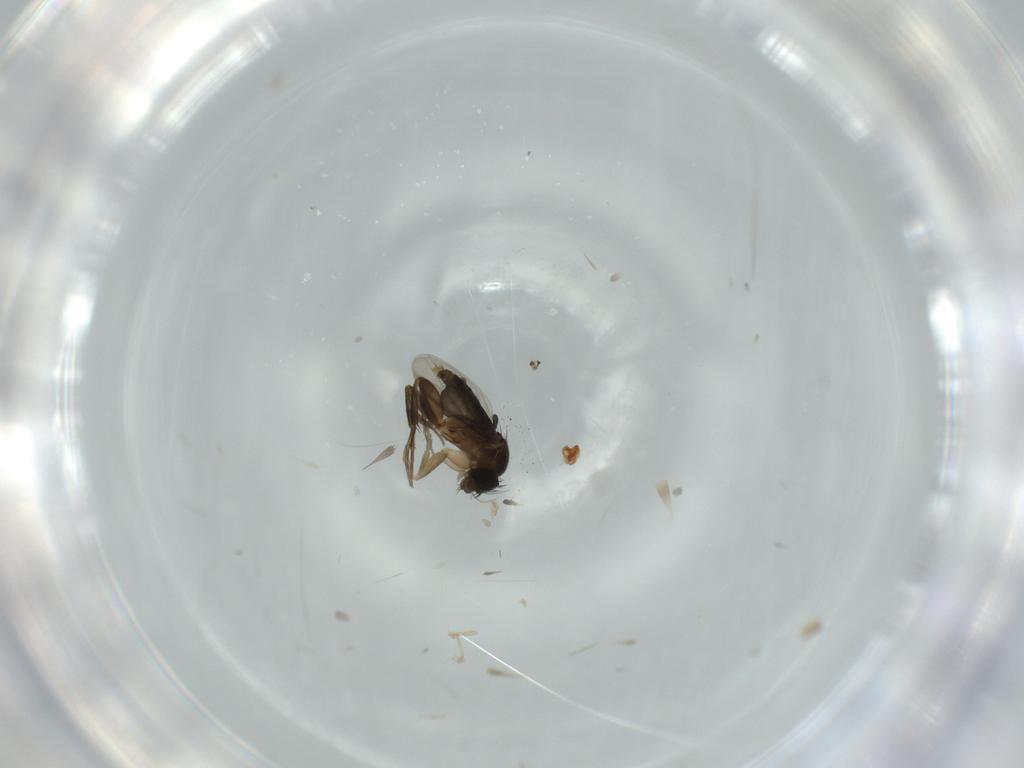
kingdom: Animalia
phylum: Arthropoda
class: Insecta
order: Diptera
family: Phoridae
